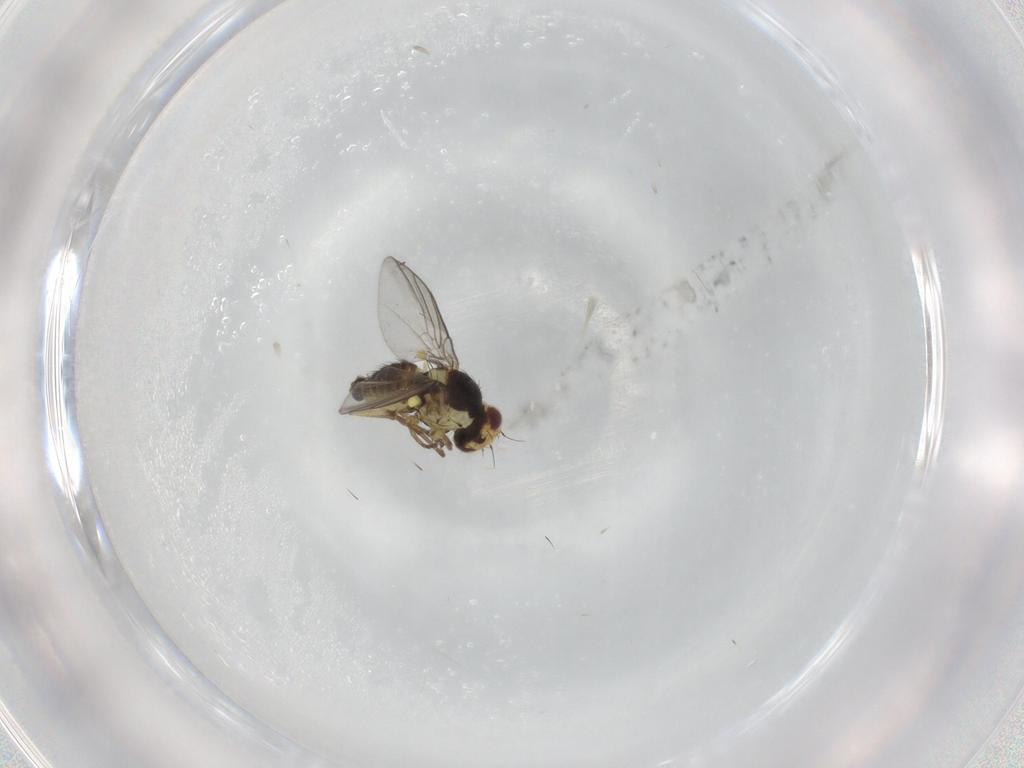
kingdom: Animalia
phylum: Arthropoda
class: Insecta
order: Diptera
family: Agromyzidae
